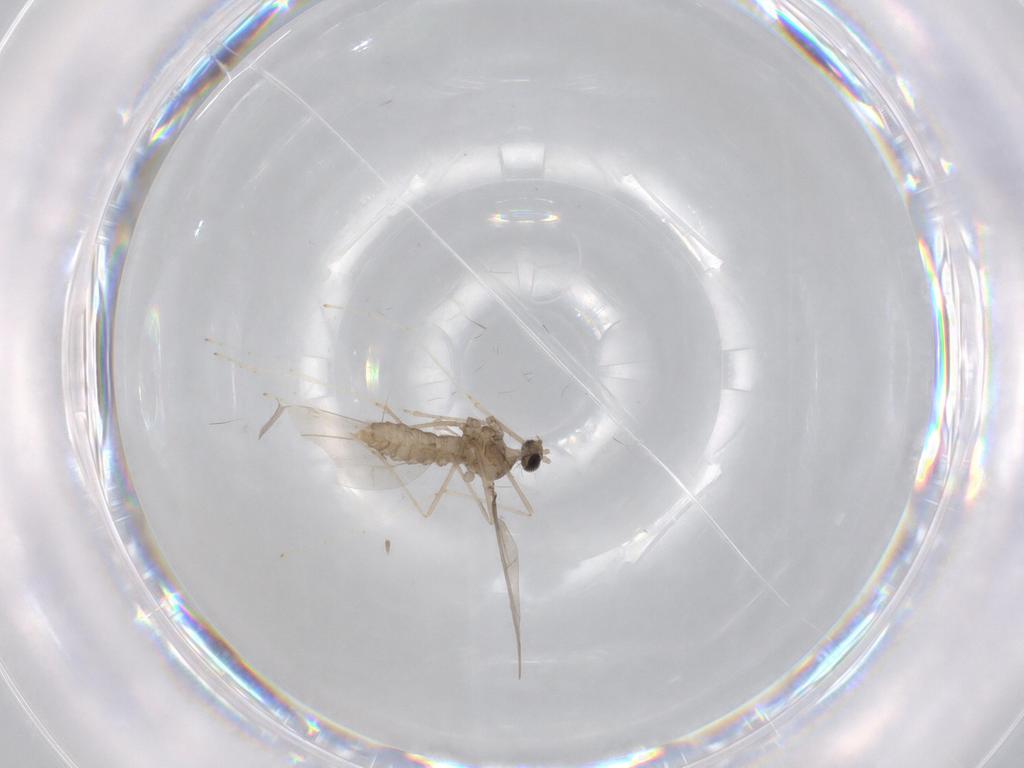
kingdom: Animalia
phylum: Arthropoda
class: Insecta
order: Diptera
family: Cecidomyiidae
